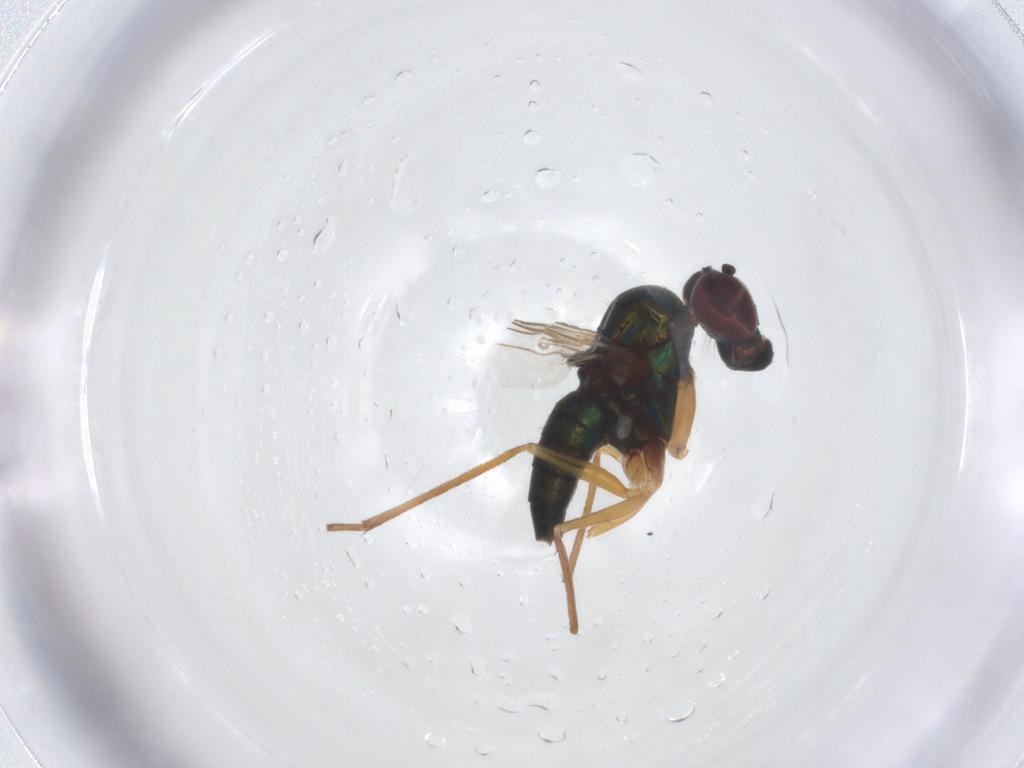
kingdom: Animalia
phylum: Arthropoda
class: Insecta
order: Diptera
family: Dolichopodidae
